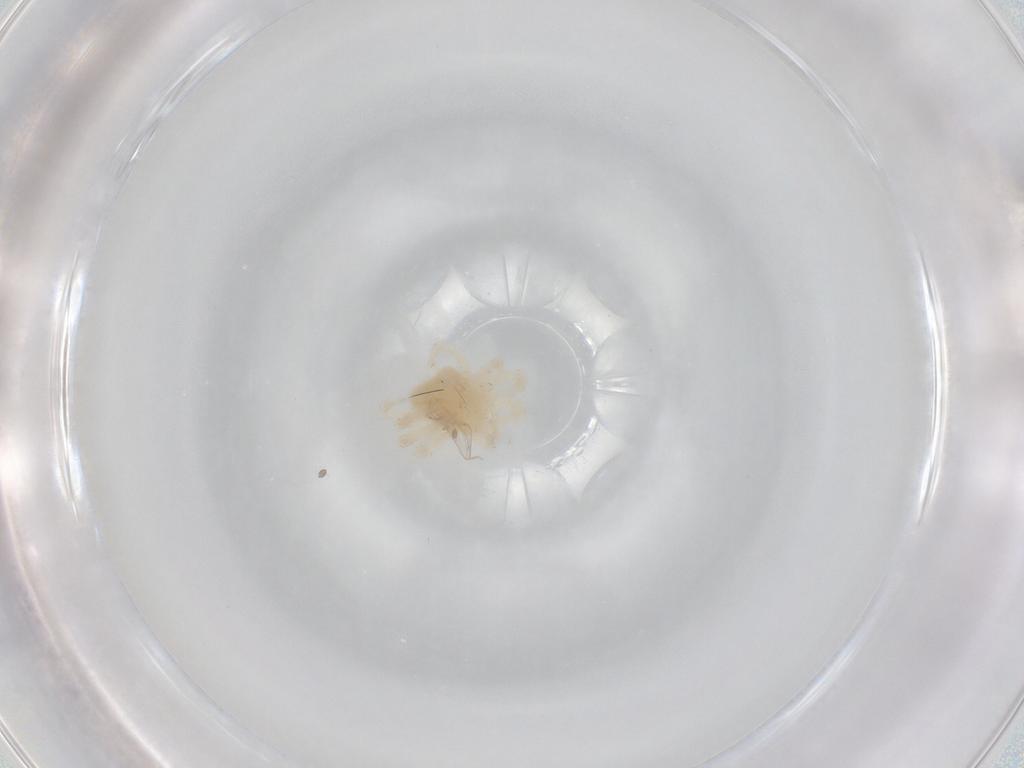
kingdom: Animalia
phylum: Arthropoda
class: Arachnida
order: Trombidiformes
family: Anystidae
